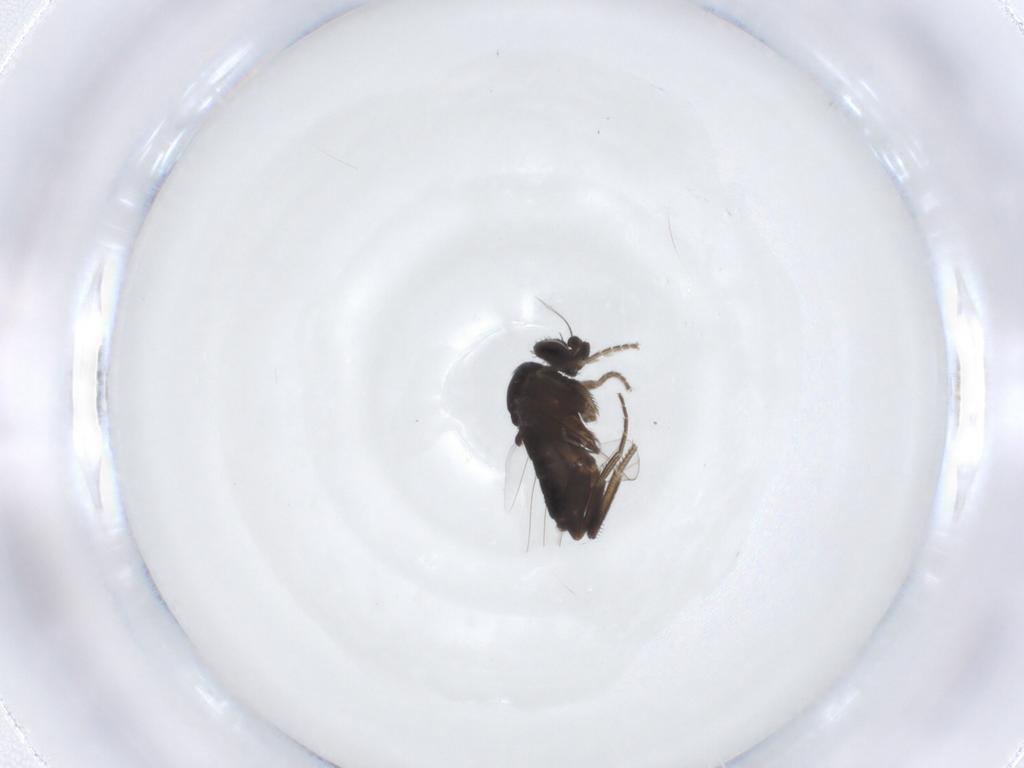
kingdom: Animalia
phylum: Arthropoda
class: Insecta
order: Diptera
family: Phoridae
